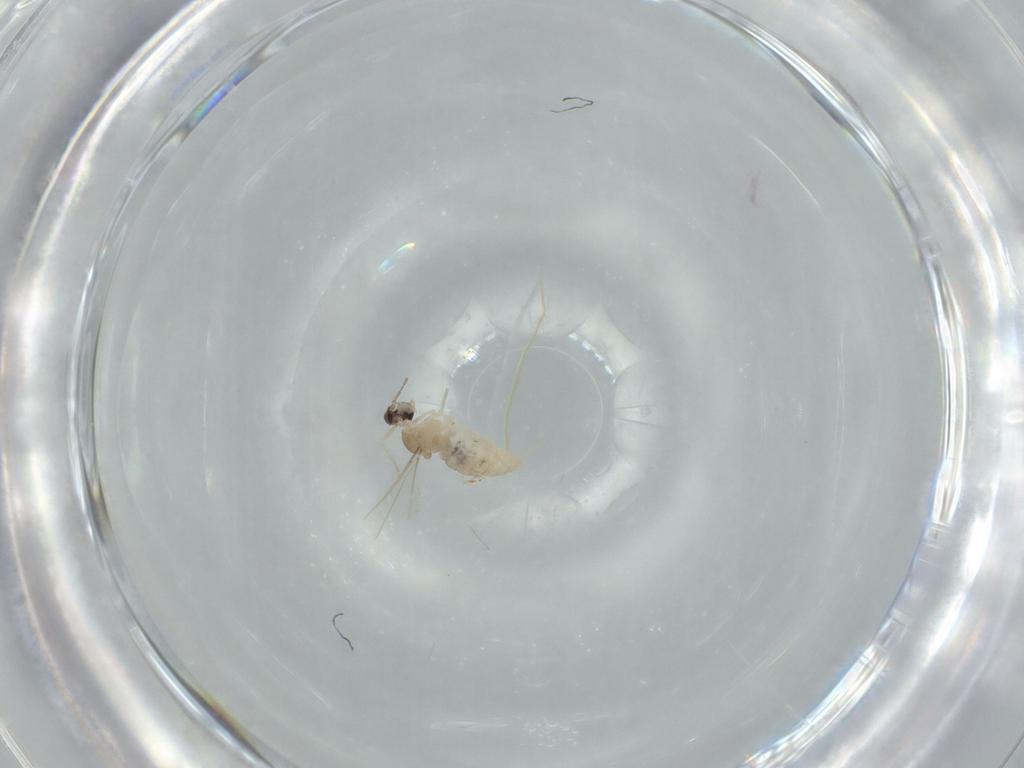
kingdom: Animalia
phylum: Arthropoda
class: Insecta
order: Diptera
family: Cecidomyiidae
